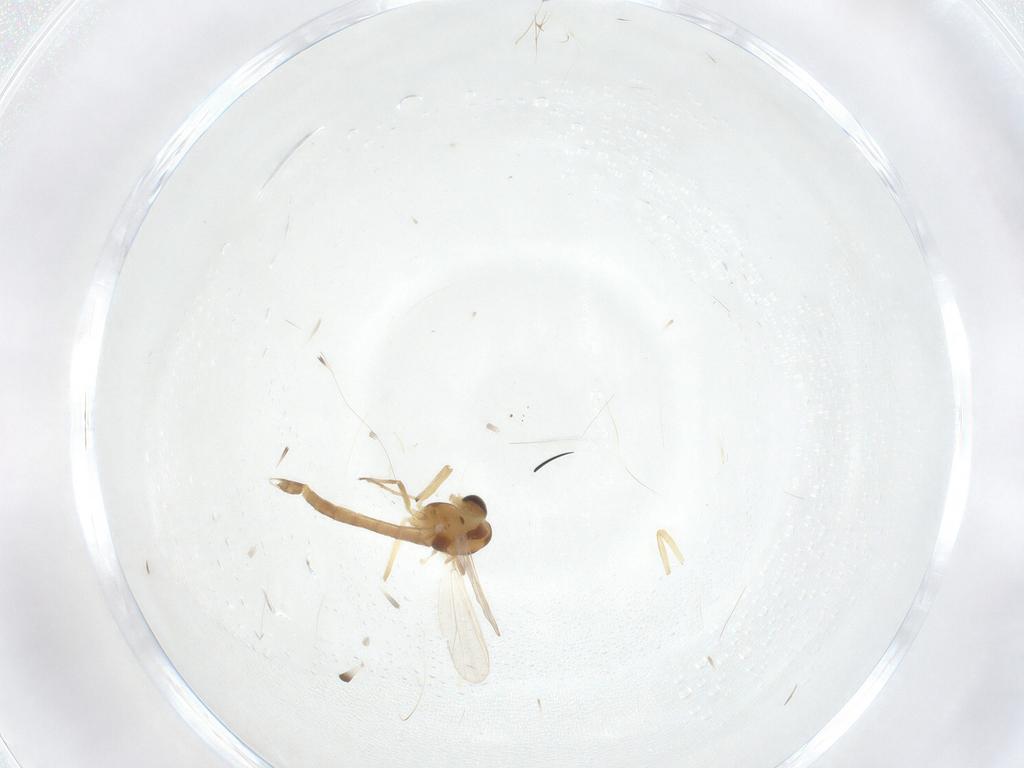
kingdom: Animalia
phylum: Arthropoda
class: Insecta
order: Diptera
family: Chironomidae
